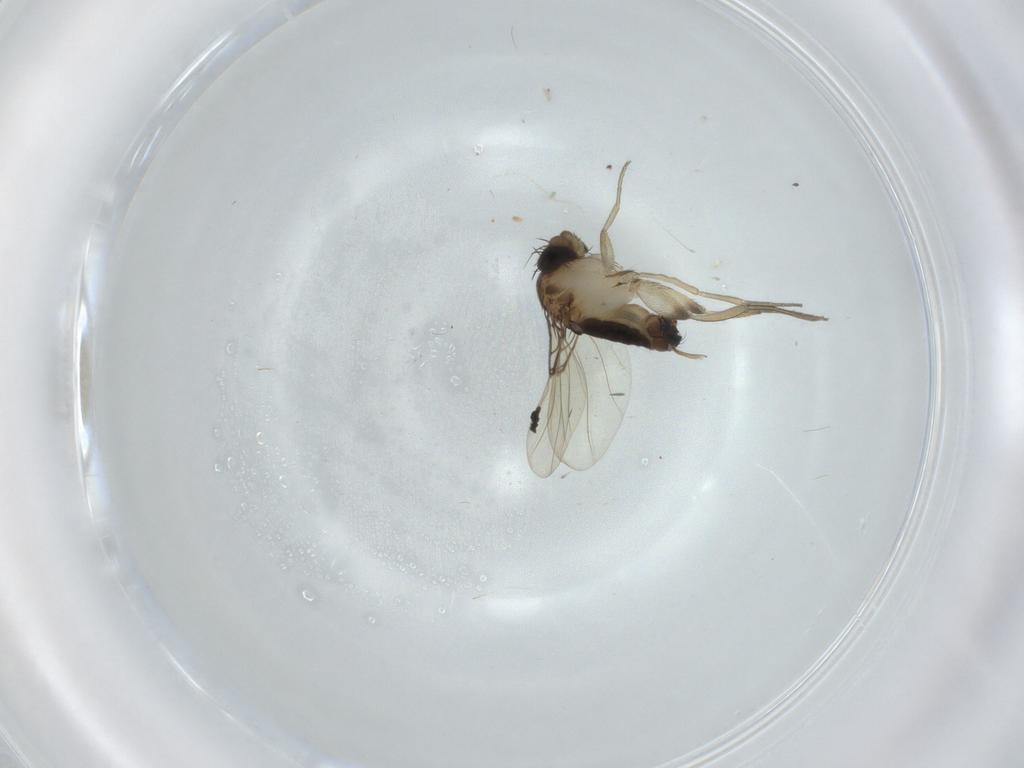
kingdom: Animalia
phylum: Arthropoda
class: Insecta
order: Diptera
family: Phoridae
